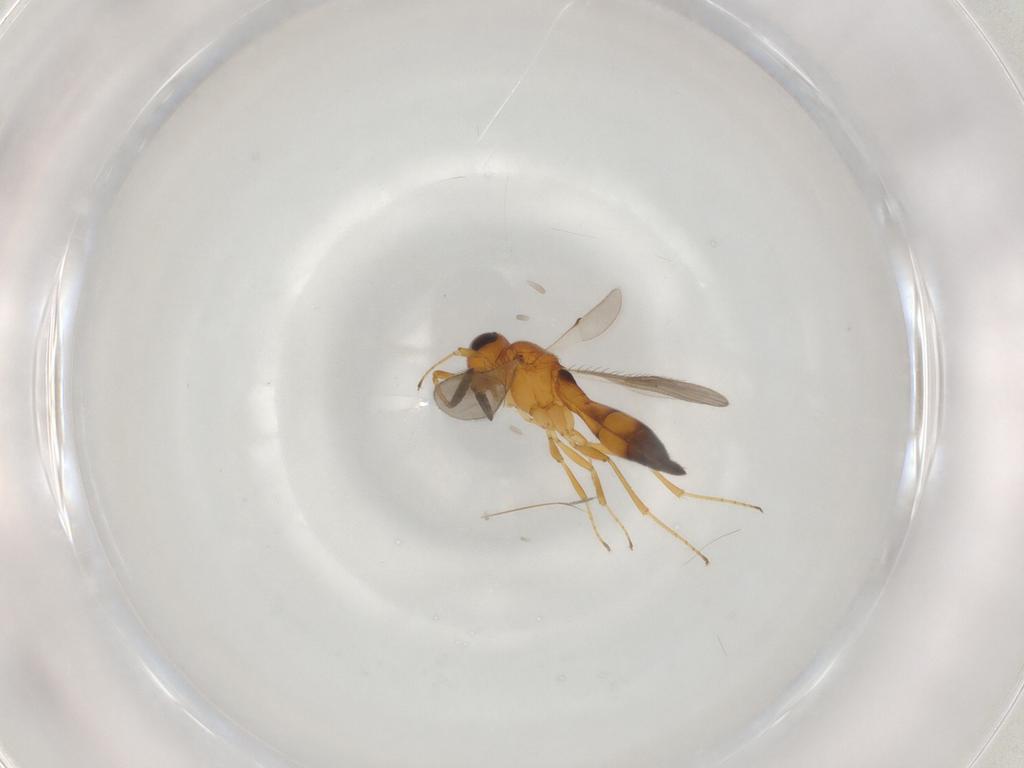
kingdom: Animalia
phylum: Arthropoda
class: Insecta
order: Hymenoptera
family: Scelionidae
